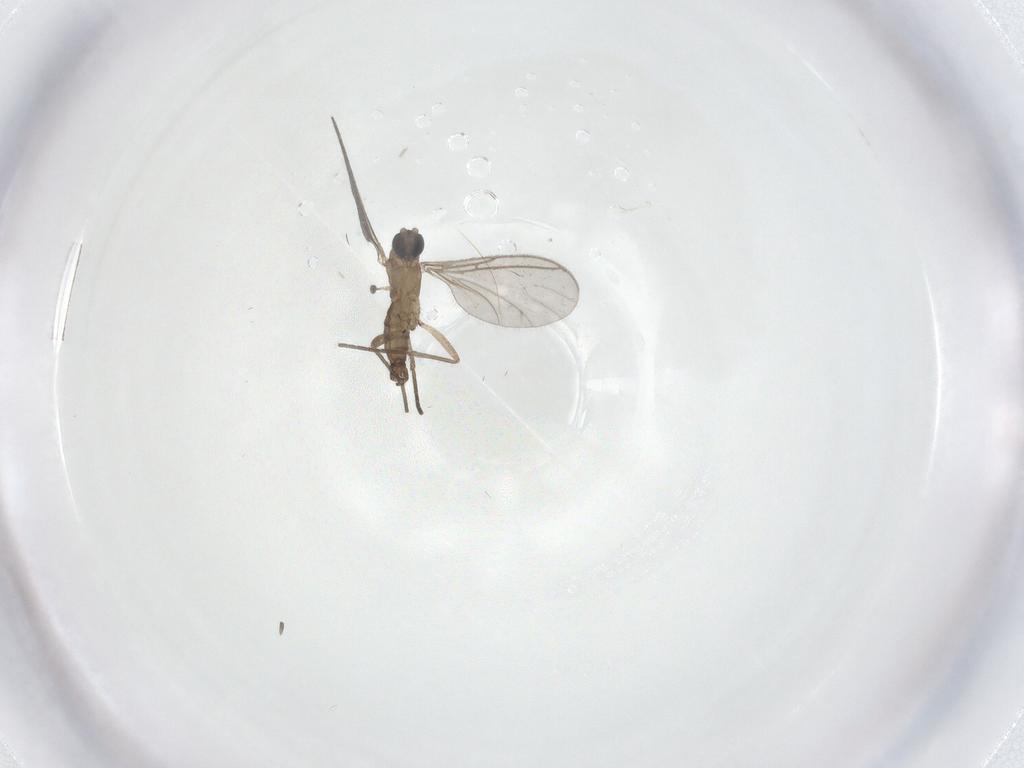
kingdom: Animalia
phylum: Arthropoda
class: Insecta
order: Diptera
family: Sciaridae
